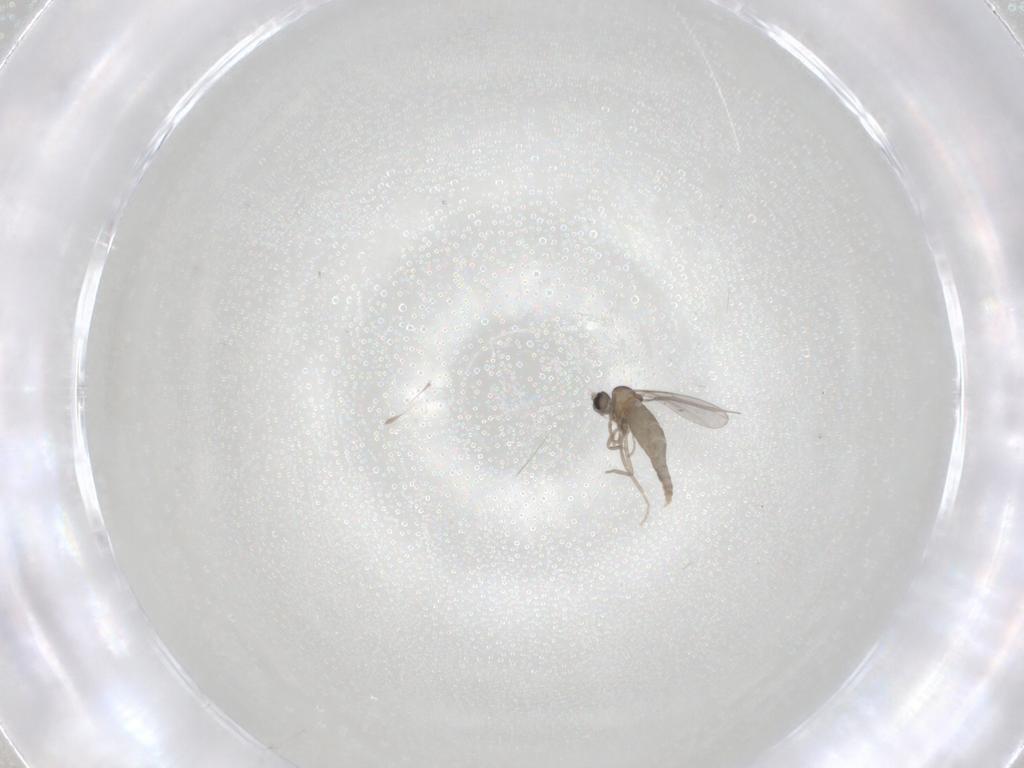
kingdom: Animalia
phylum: Arthropoda
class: Insecta
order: Diptera
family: Cecidomyiidae
